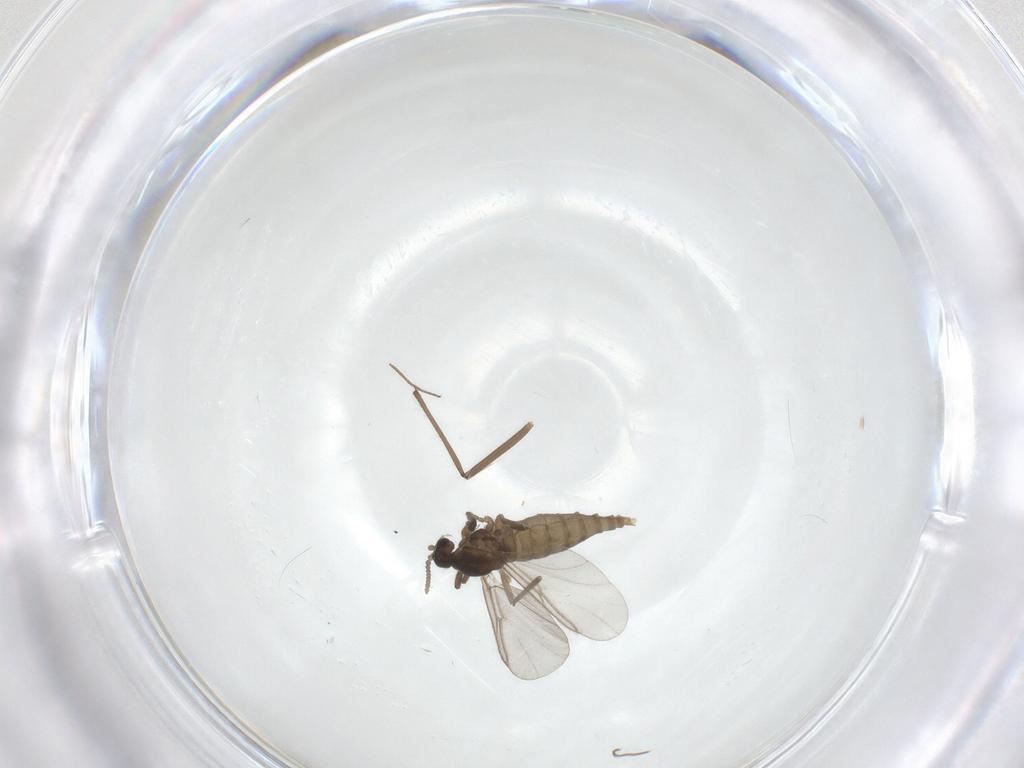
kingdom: Animalia
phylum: Arthropoda
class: Insecta
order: Diptera
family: Cecidomyiidae
